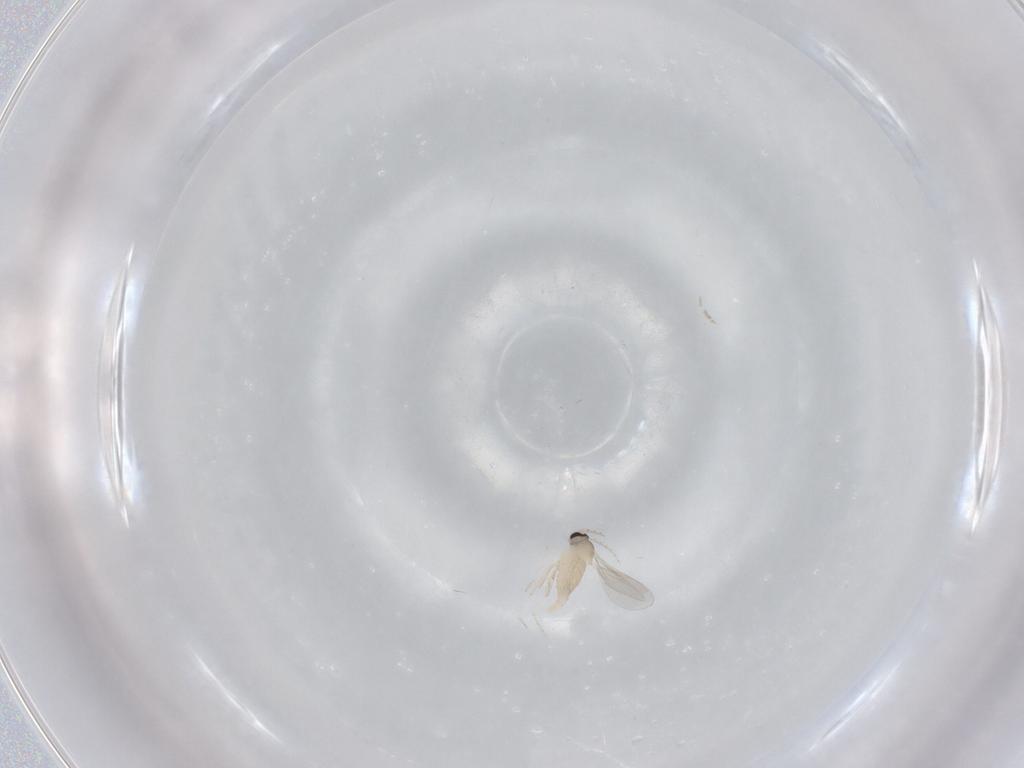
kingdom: Animalia
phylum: Arthropoda
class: Insecta
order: Diptera
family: Cecidomyiidae
